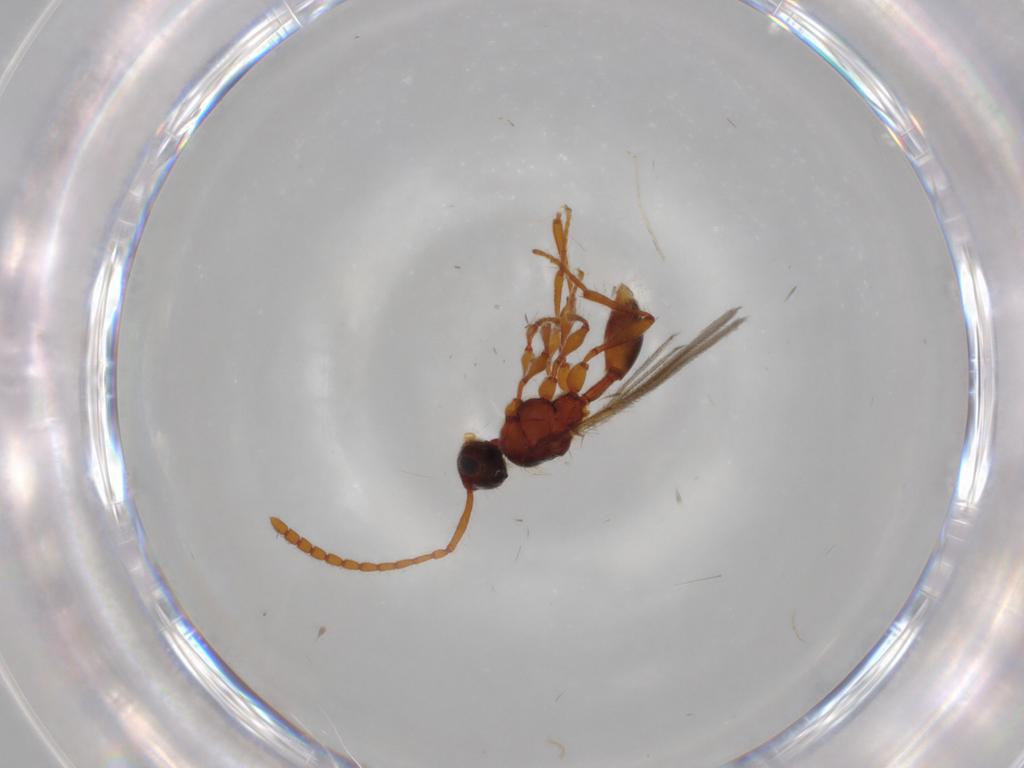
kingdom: Animalia
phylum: Arthropoda
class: Insecta
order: Hymenoptera
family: Diapriidae
